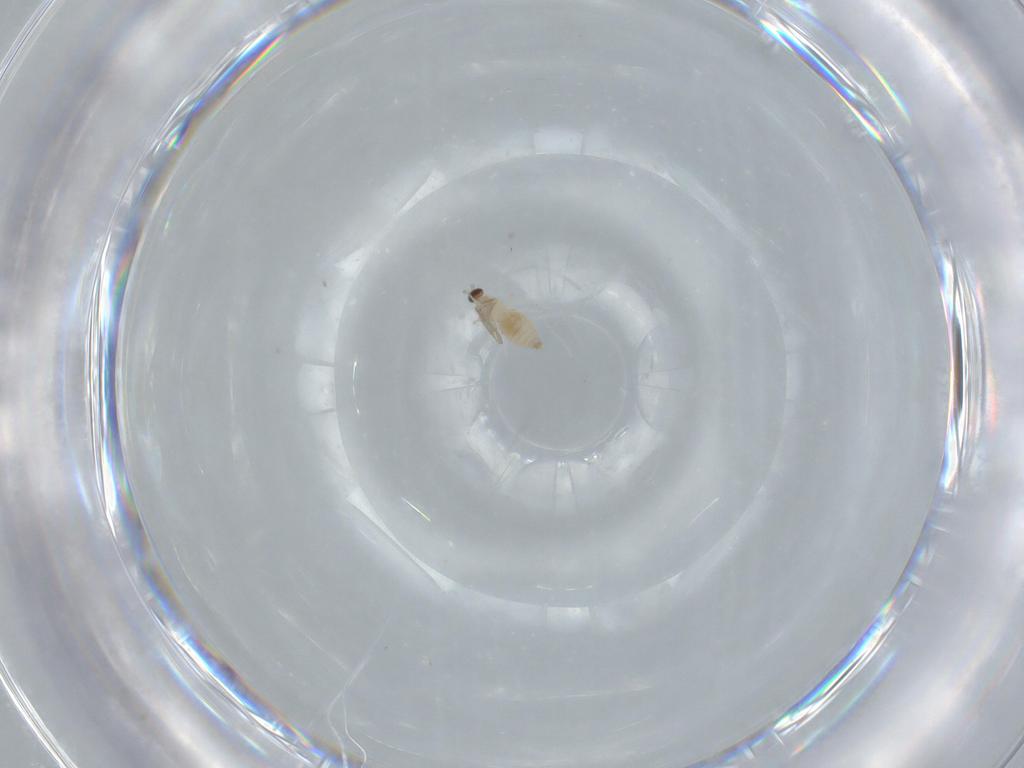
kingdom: Animalia
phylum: Arthropoda
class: Insecta
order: Diptera
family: Cecidomyiidae
